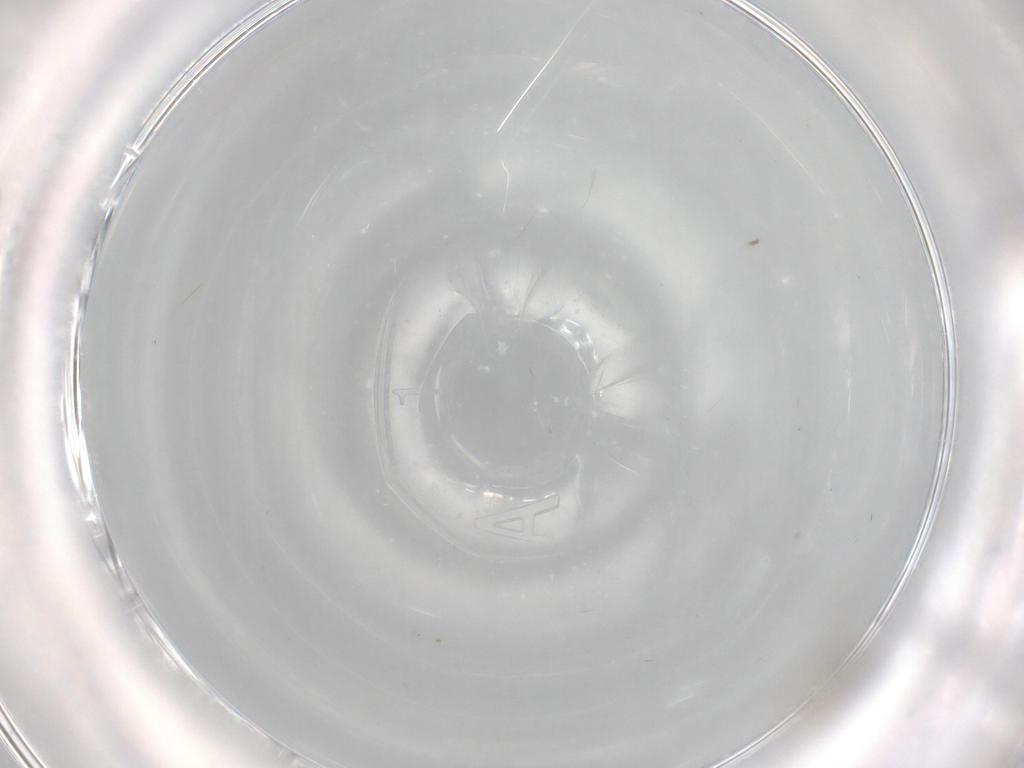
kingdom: Animalia
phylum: Arthropoda
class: Insecta
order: Diptera
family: Cecidomyiidae
